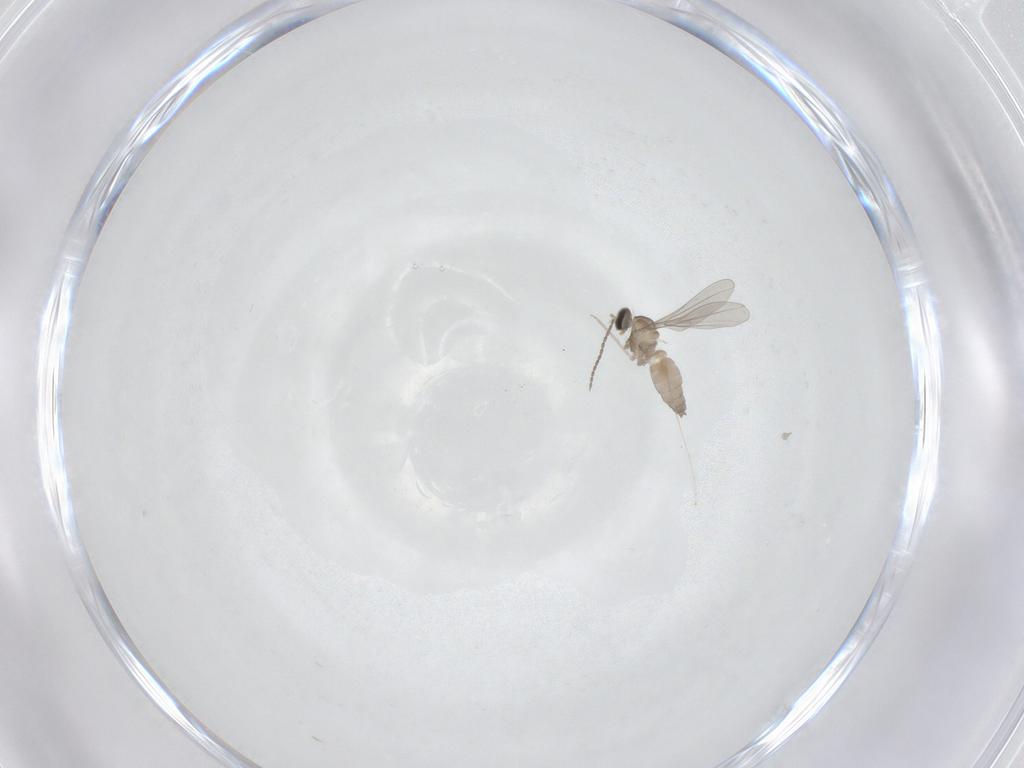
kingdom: Animalia
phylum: Arthropoda
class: Insecta
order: Diptera
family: Cecidomyiidae
